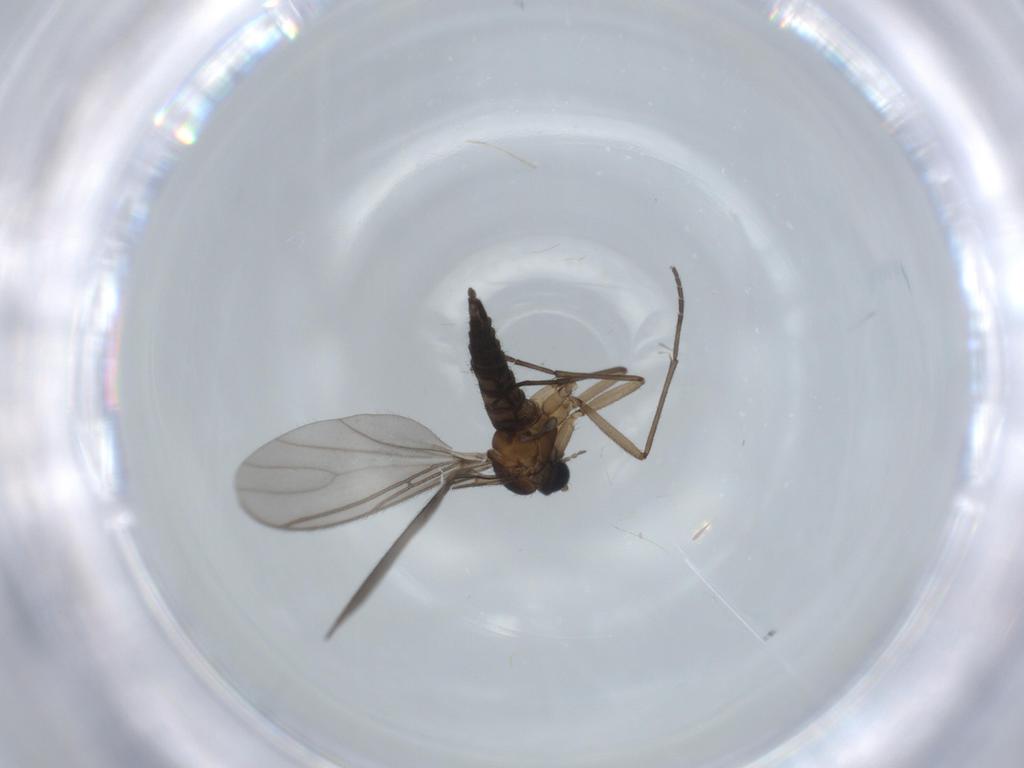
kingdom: Animalia
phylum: Arthropoda
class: Insecta
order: Diptera
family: Sciaridae
